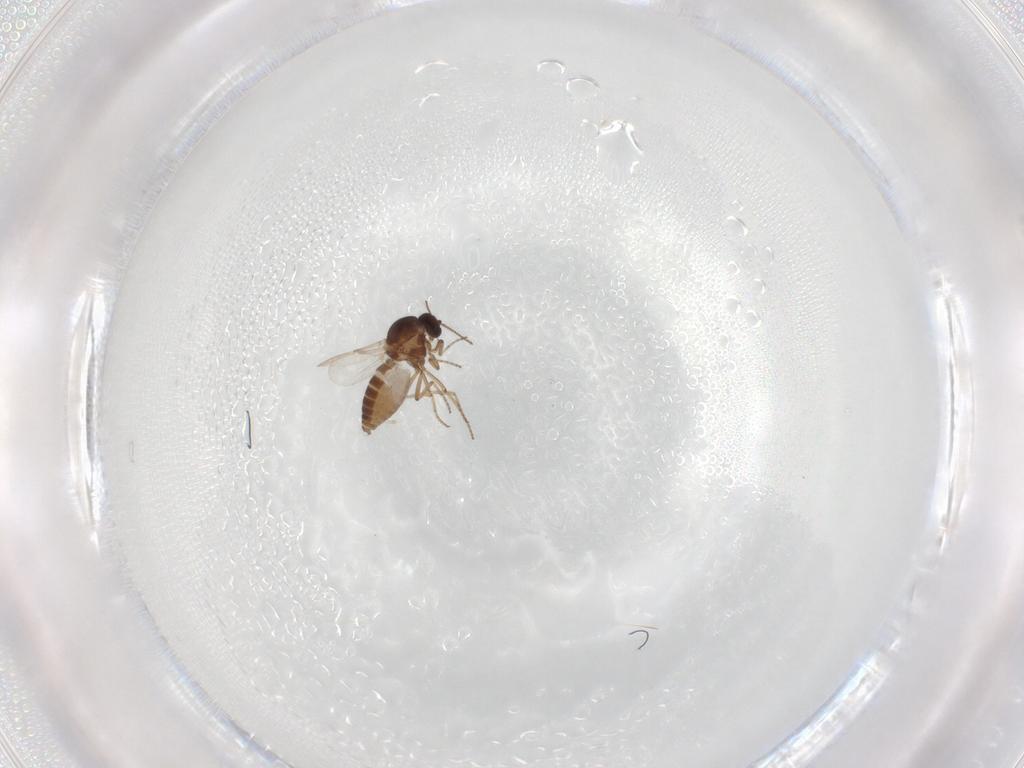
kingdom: Animalia
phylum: Arthropoda
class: Insecta
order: Diptera
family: Ceratopogonidae
